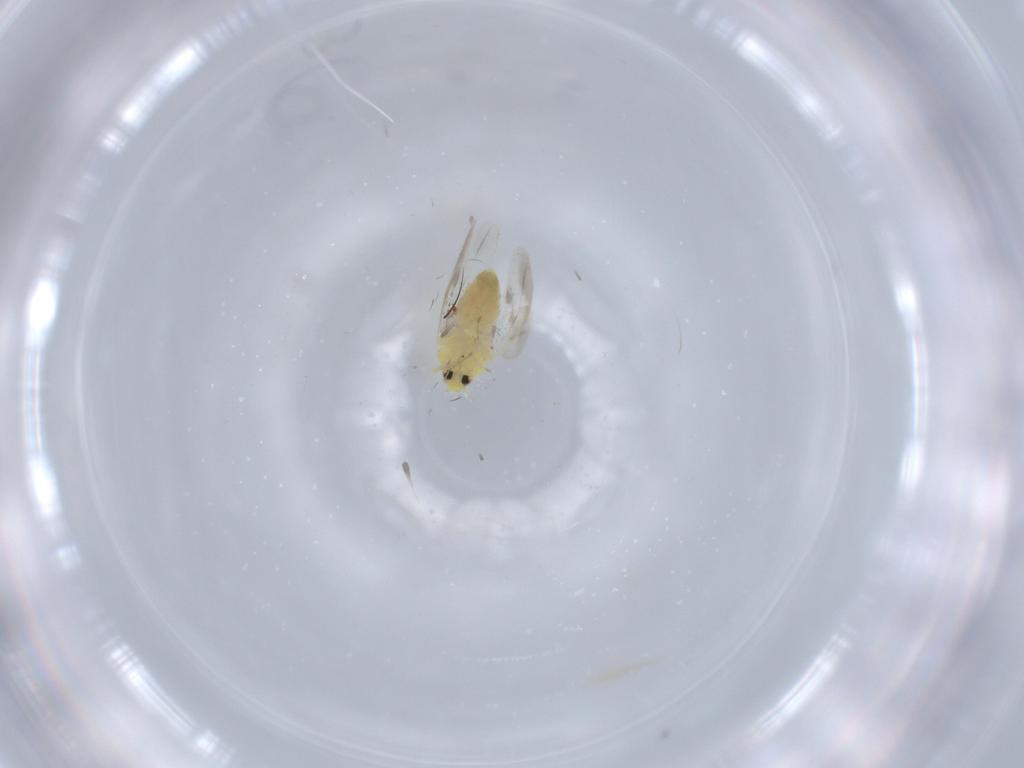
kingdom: Animalia
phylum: Arthropoda
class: Insecta
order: Hemiptera
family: Aleyrodidae
